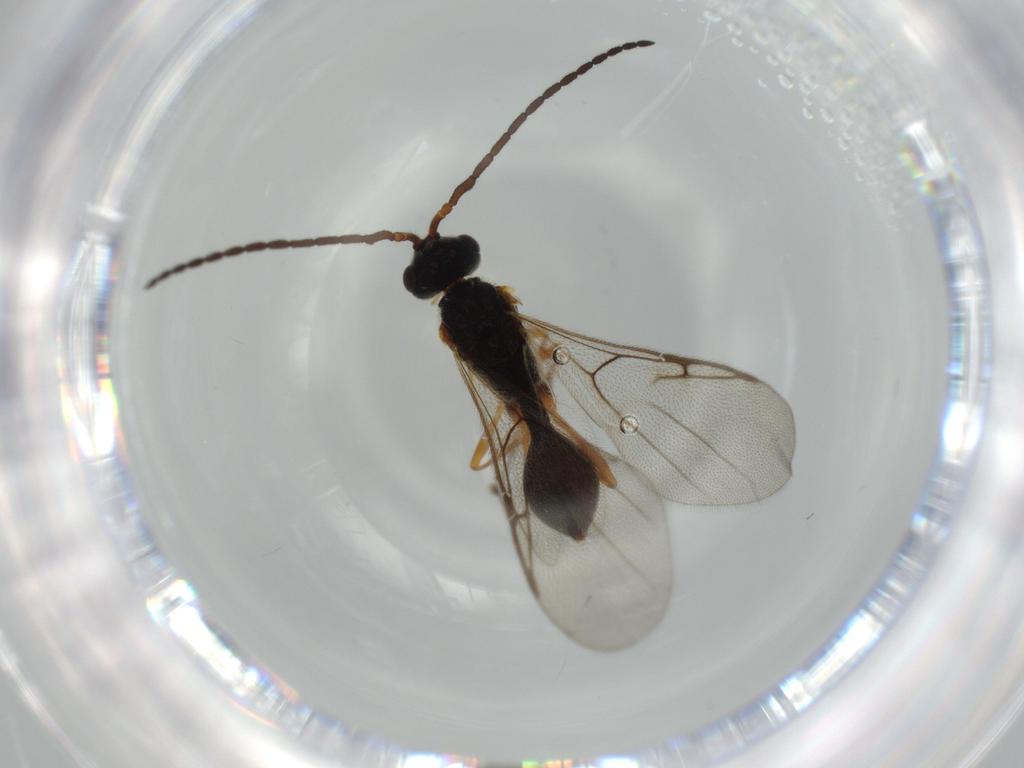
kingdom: Animalia
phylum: Arthropoda
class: Insecta
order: Hymenoptera
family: Diapriidae
